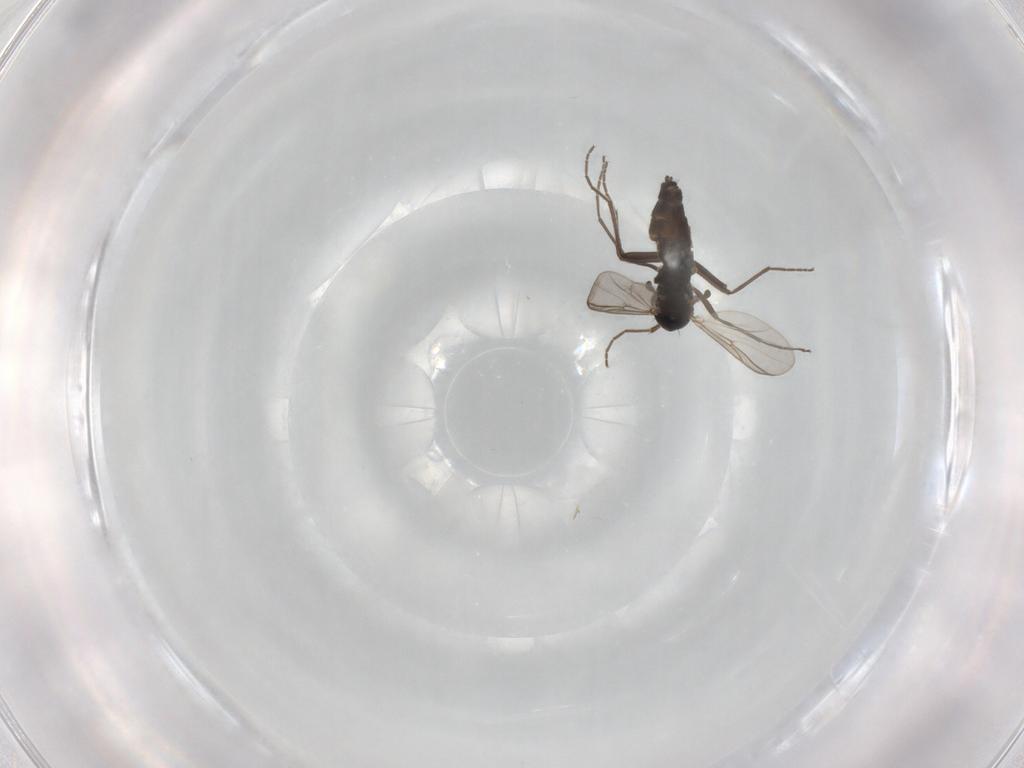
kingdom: Animalia
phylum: Arthropoda
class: Insecta
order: Diptera
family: Chironomidae
